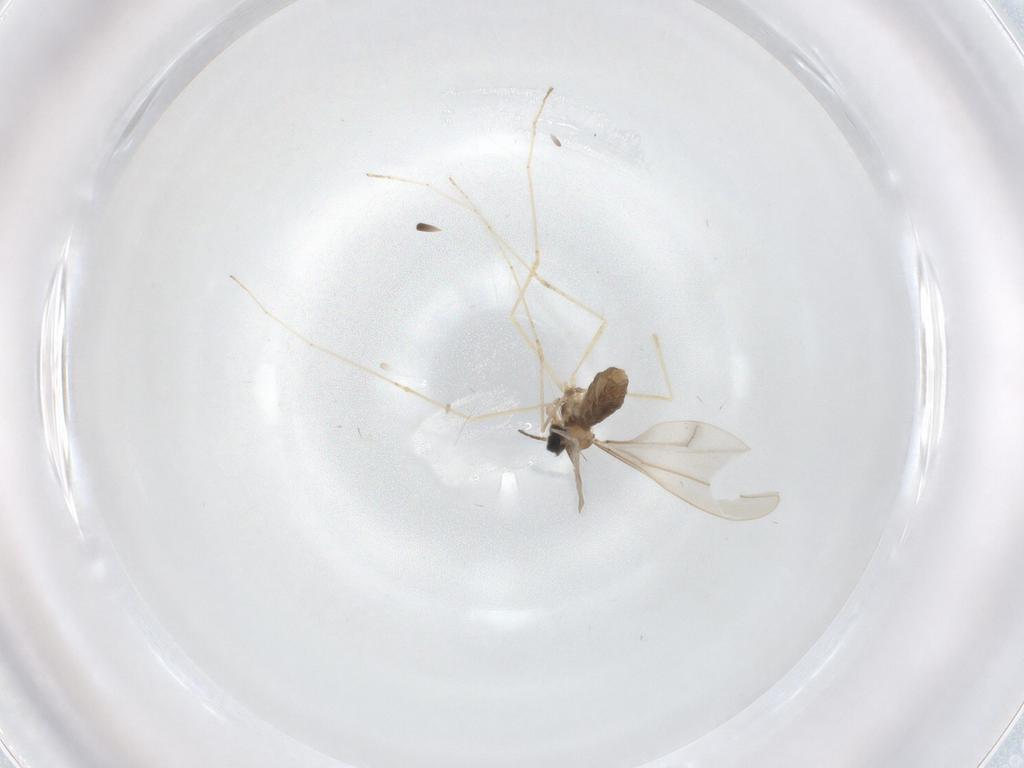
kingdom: Animalia
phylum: Arthropoda
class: Insecta
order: Diptera
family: Cecidomyiidae
